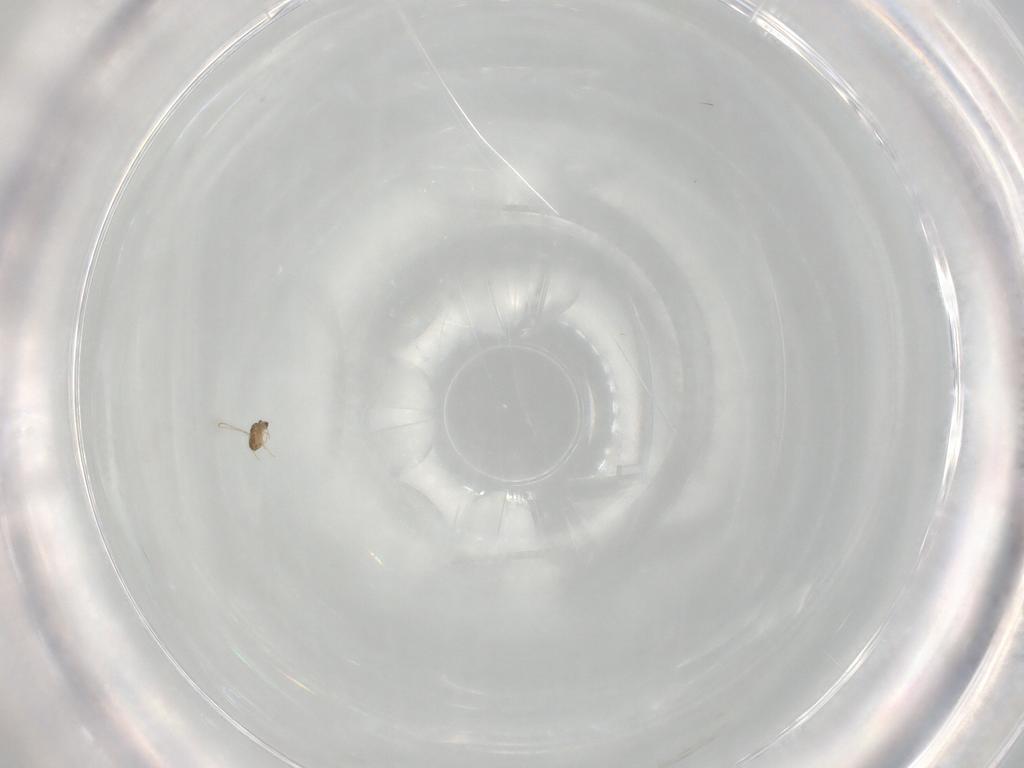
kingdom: Animalia
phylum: Arthropoda
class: Insecta
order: Hymenoptera
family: Mymaridae
